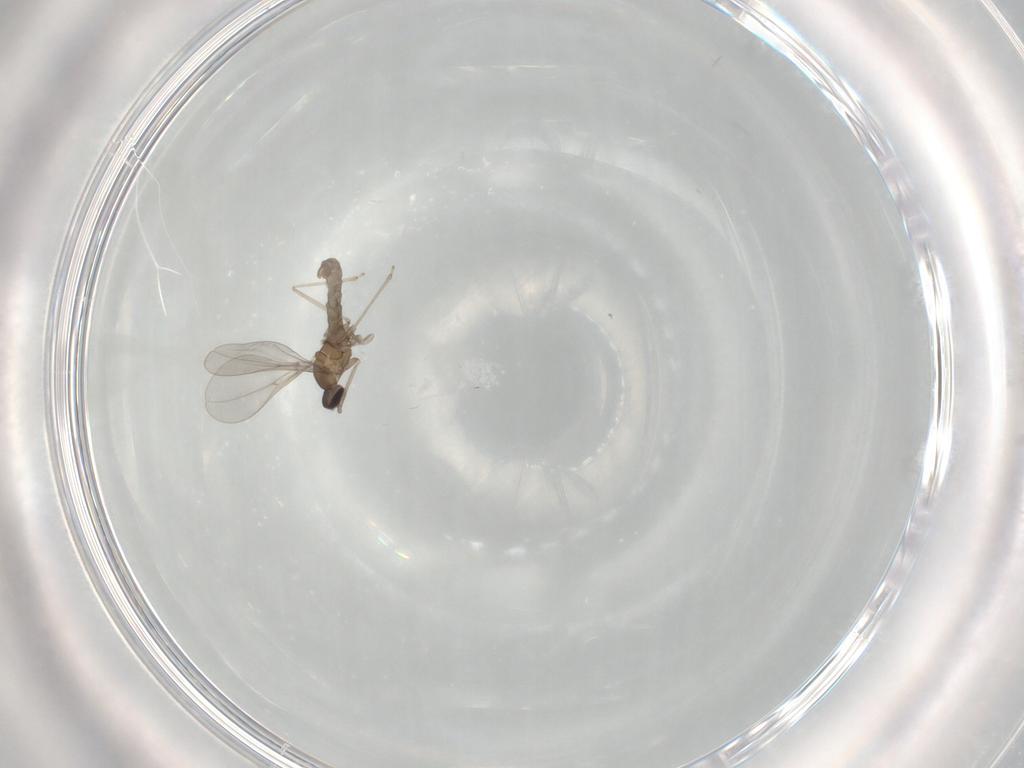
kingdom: Animalia
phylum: Arthropoda
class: Insecta
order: Diptera
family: Cecidomyiidae
